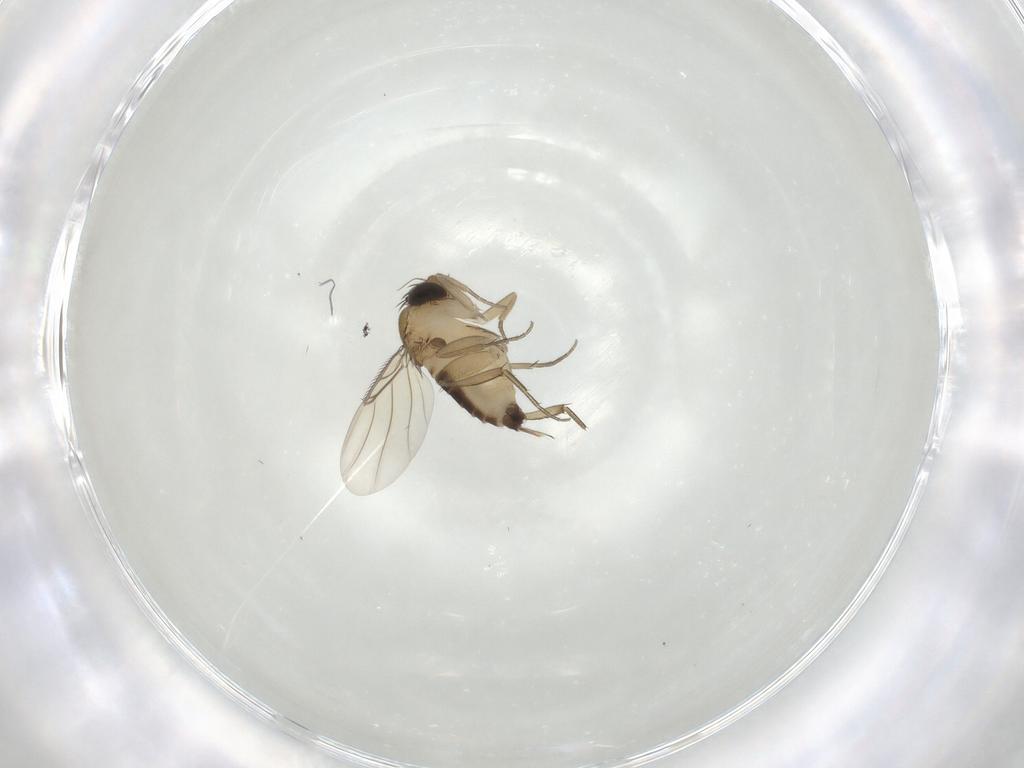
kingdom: Animalia
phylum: Arthropoda
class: Insecta
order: Diptera
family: Phoridae
